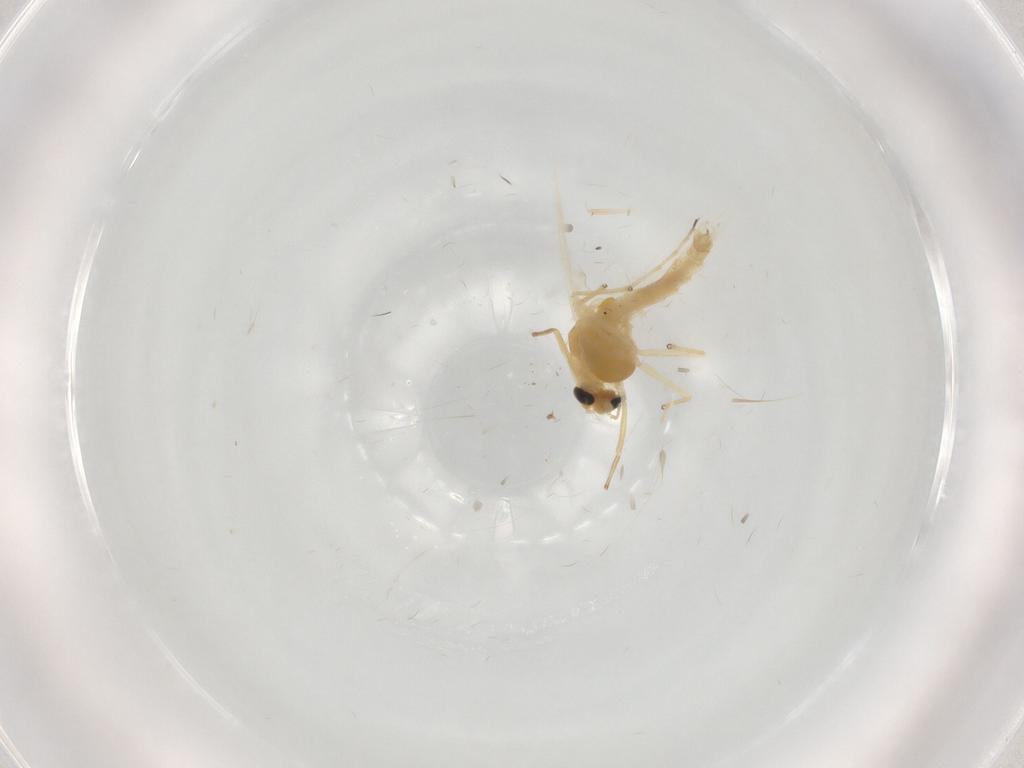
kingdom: Animalia
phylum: Arthropoda
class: Insecta
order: Diptera
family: Chironomidae
